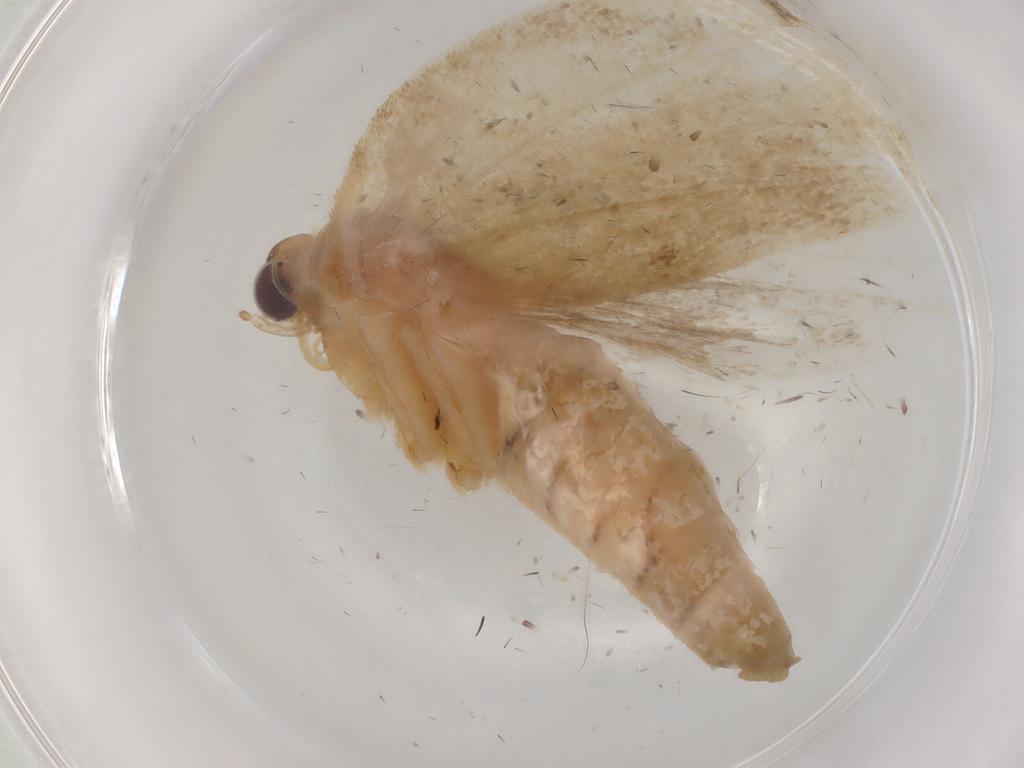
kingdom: Animalia
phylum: Arthropoda
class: Insecta
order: Lepidoptera
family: Tortricidae
